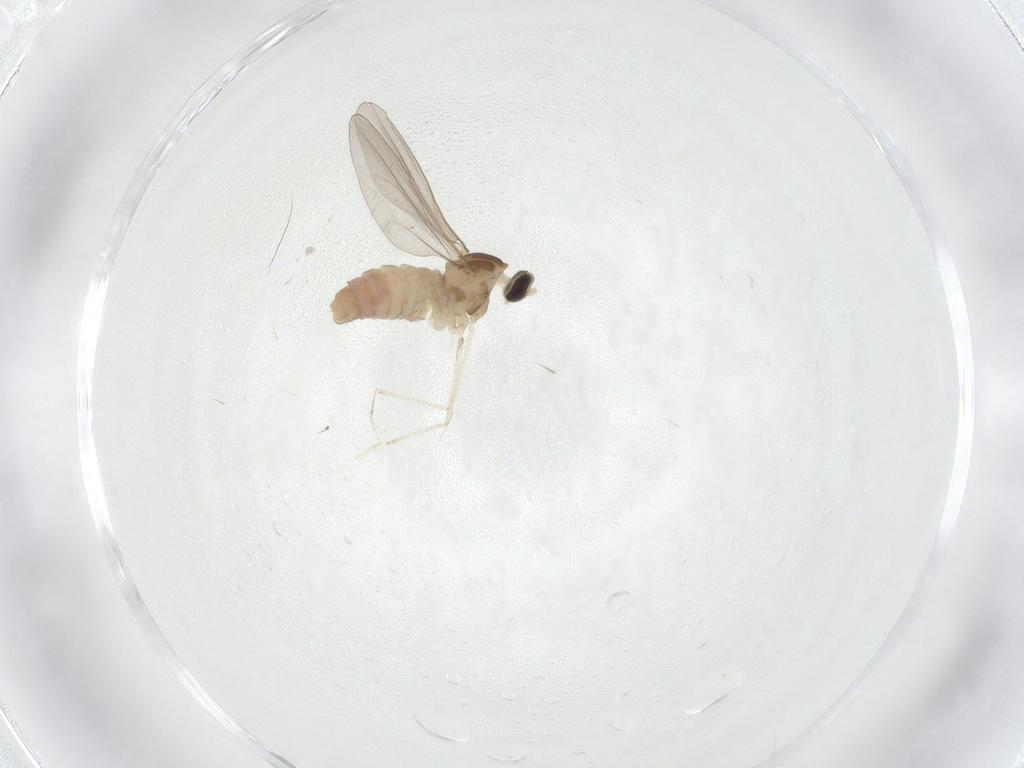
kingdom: Animalia
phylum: Arthropoda
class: Insecta
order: Diptera
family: Cecidomyiidae
